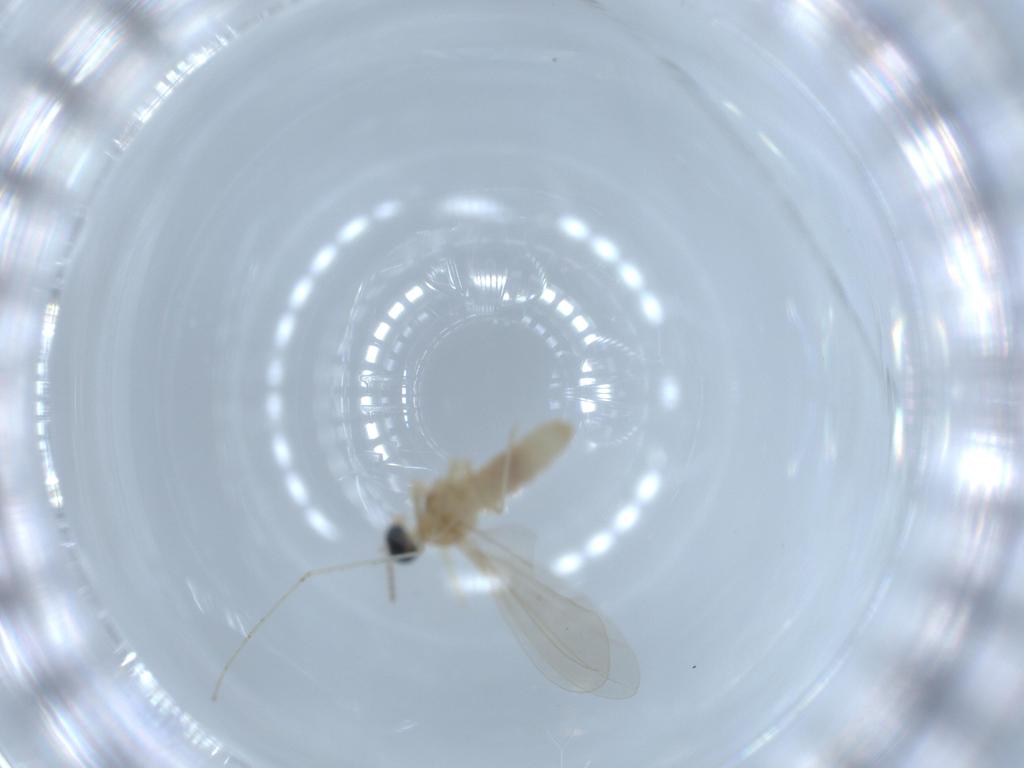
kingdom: Animalia
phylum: Arthropoda
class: Insecta
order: Diptera
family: Cecidomyiidae
